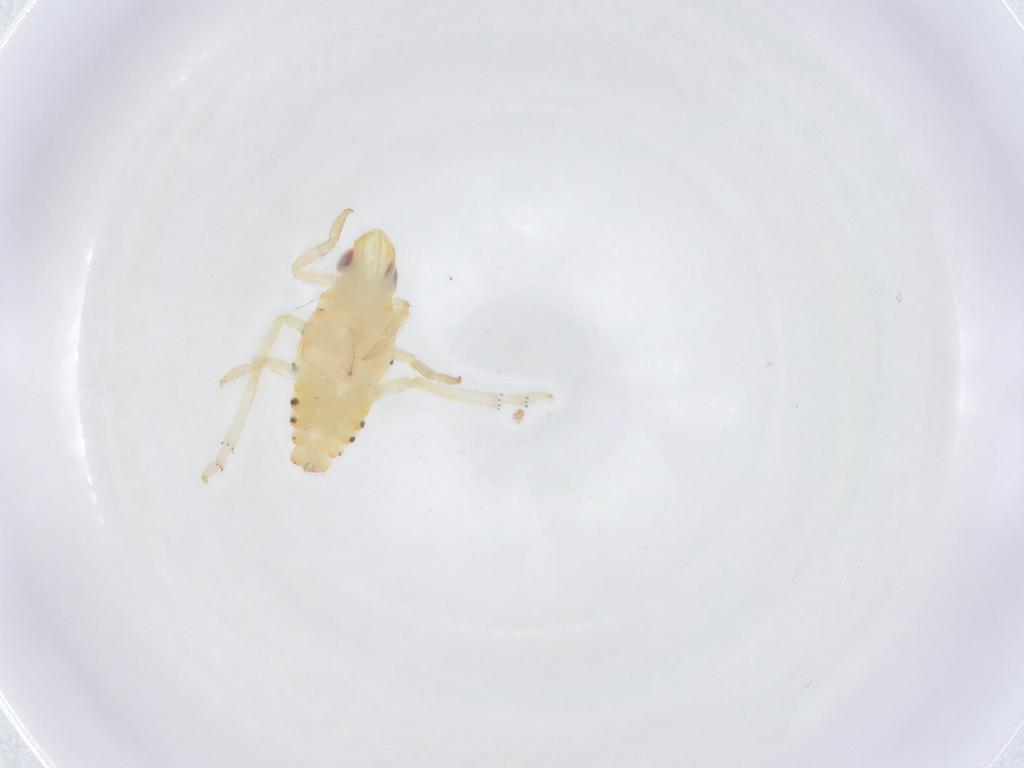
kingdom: Animalia
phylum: Arthropoda
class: Insecta
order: Hemiptera
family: Tropiduchidae
